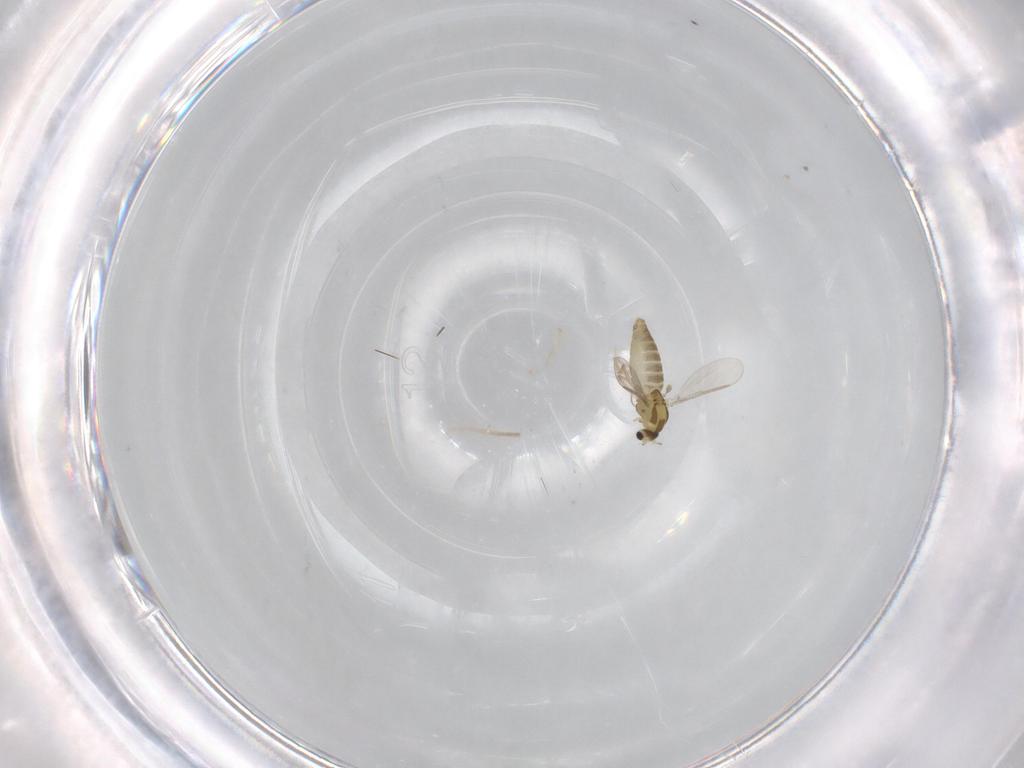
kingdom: Animalia
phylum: Arthropoda
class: Insecta
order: Diptera
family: Chironomidae
